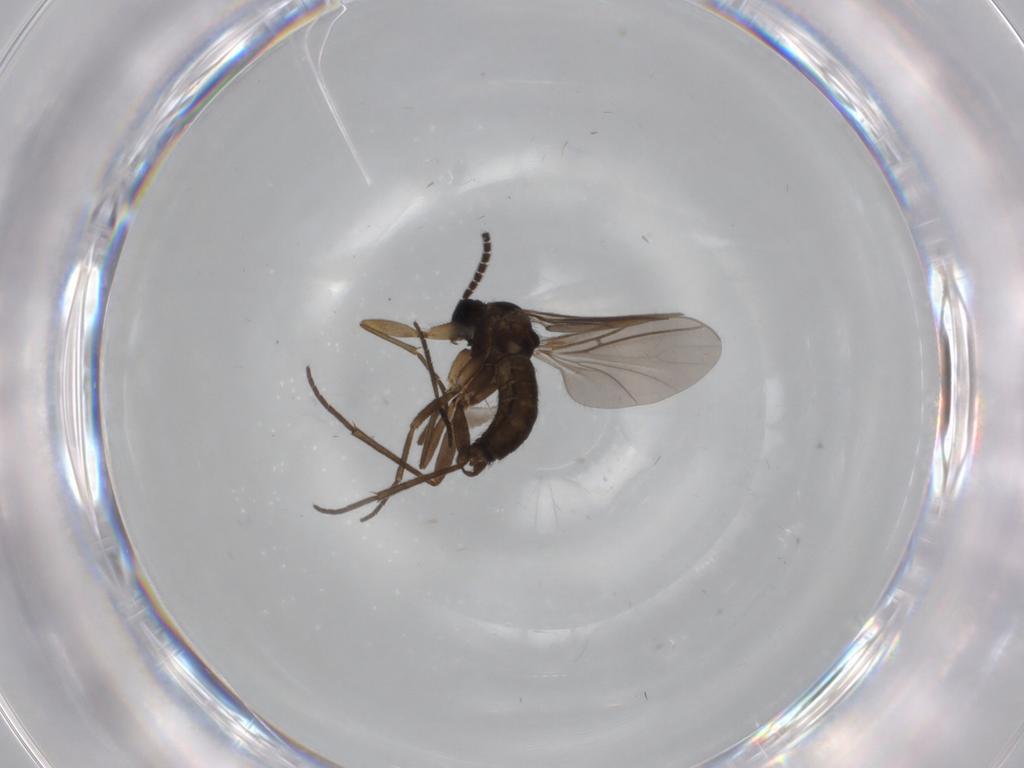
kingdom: Animalia
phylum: Arthropoda
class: Insecta
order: Diptera
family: Sciaridae
